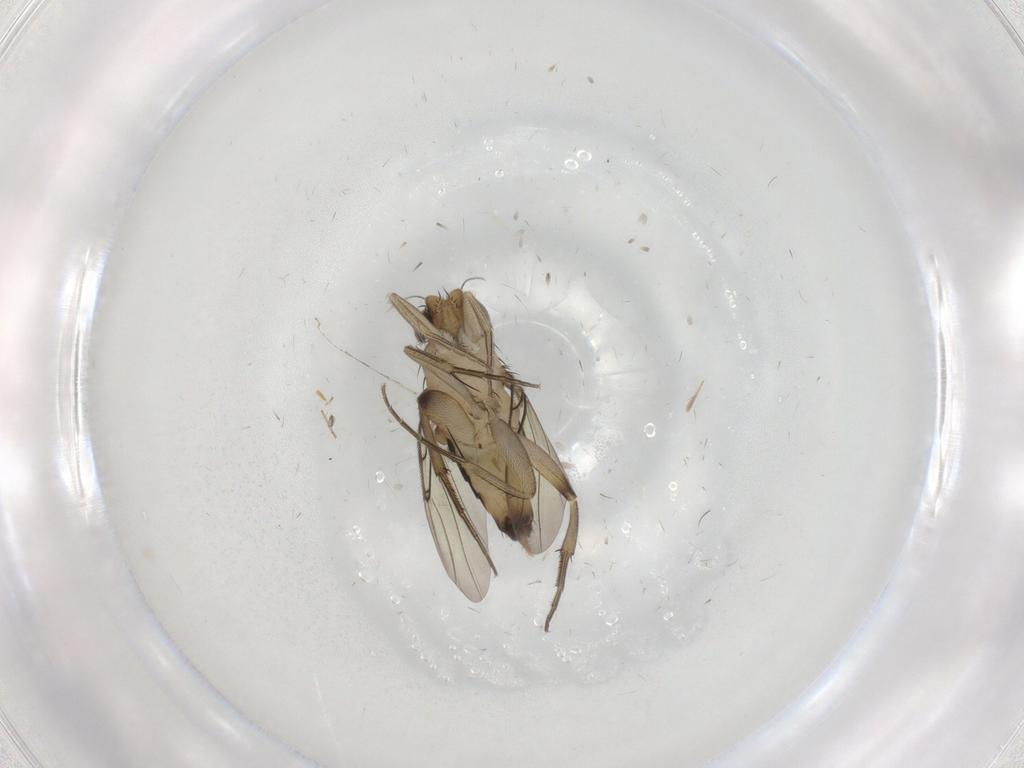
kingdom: Animalia
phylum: Arthropoda
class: Insecta
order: Diptera
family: Phoridae
